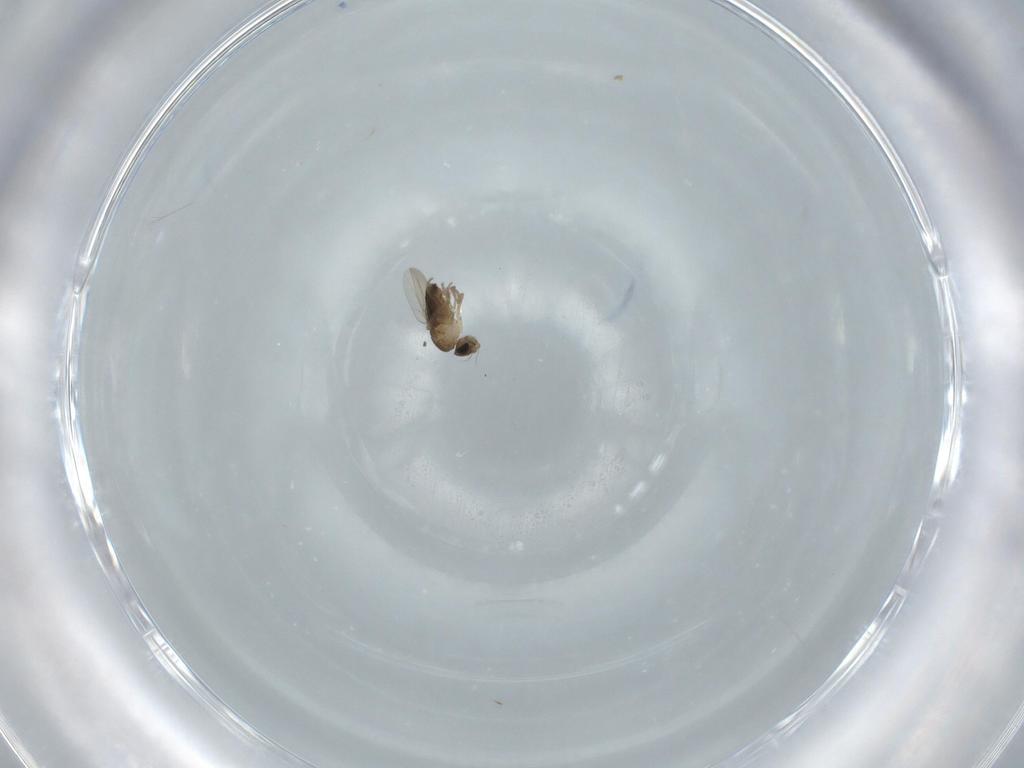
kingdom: Animalia
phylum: Arthropoda
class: Insecta
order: Diptera
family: Phoridae
